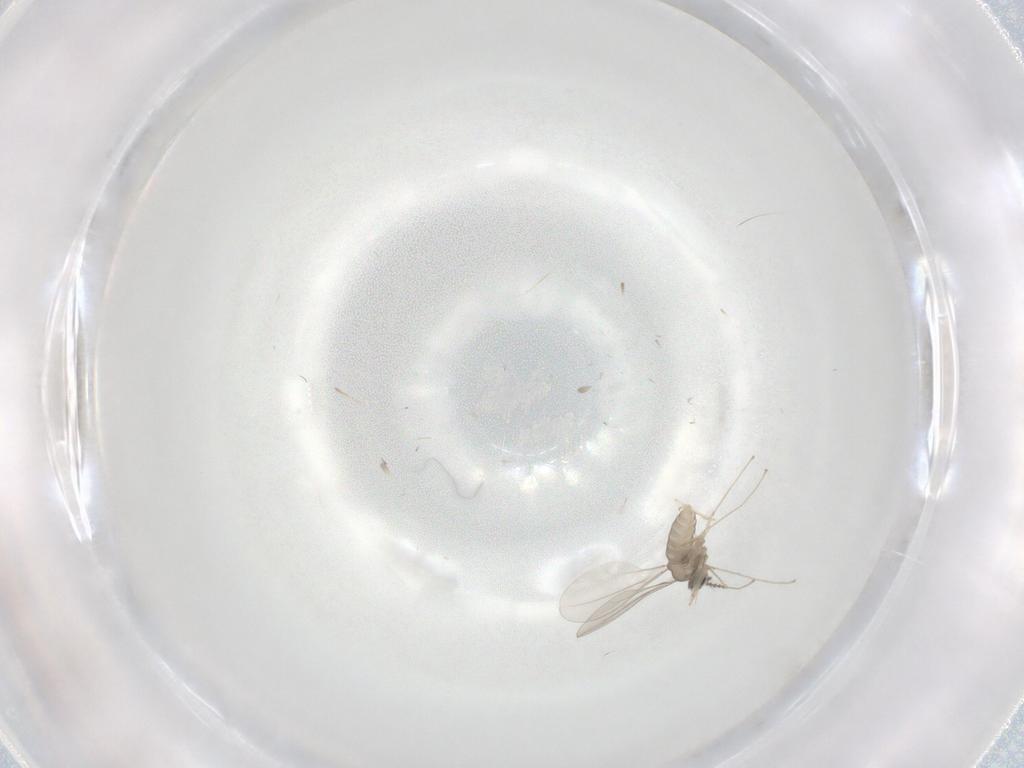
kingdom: Animalia
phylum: Arthropoda
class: Insecta
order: Diptera
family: Cecidomyiidae
